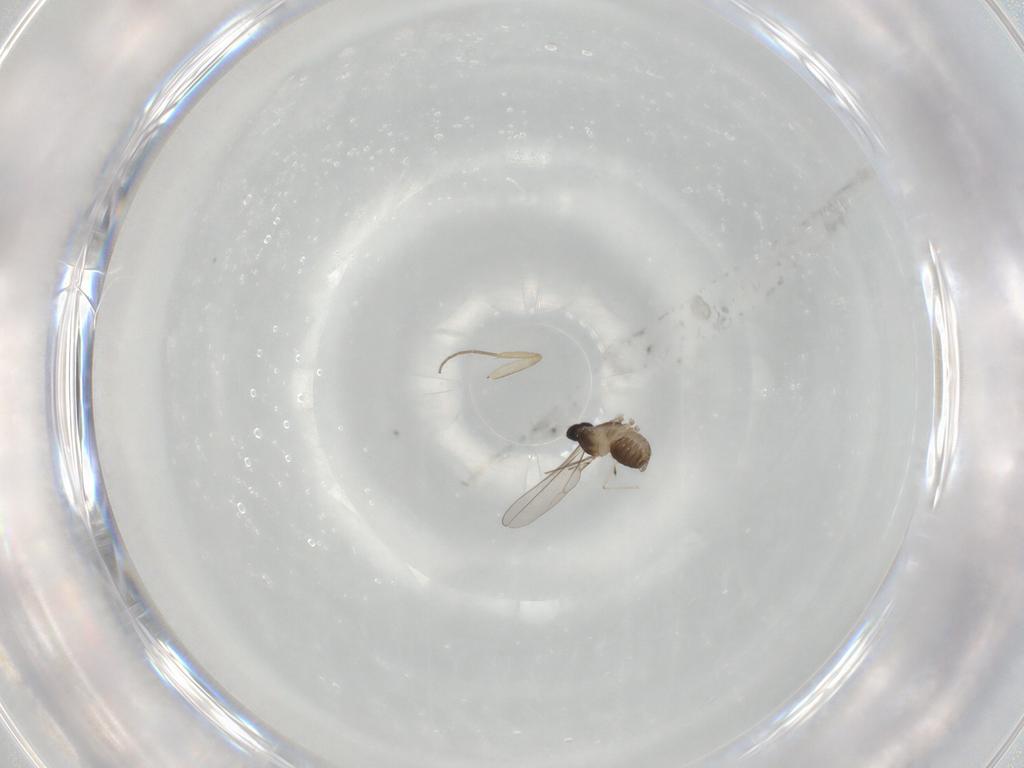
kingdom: Animalia
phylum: Arthropoda
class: Insecta
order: Diptera
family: Cecidomyiidae
